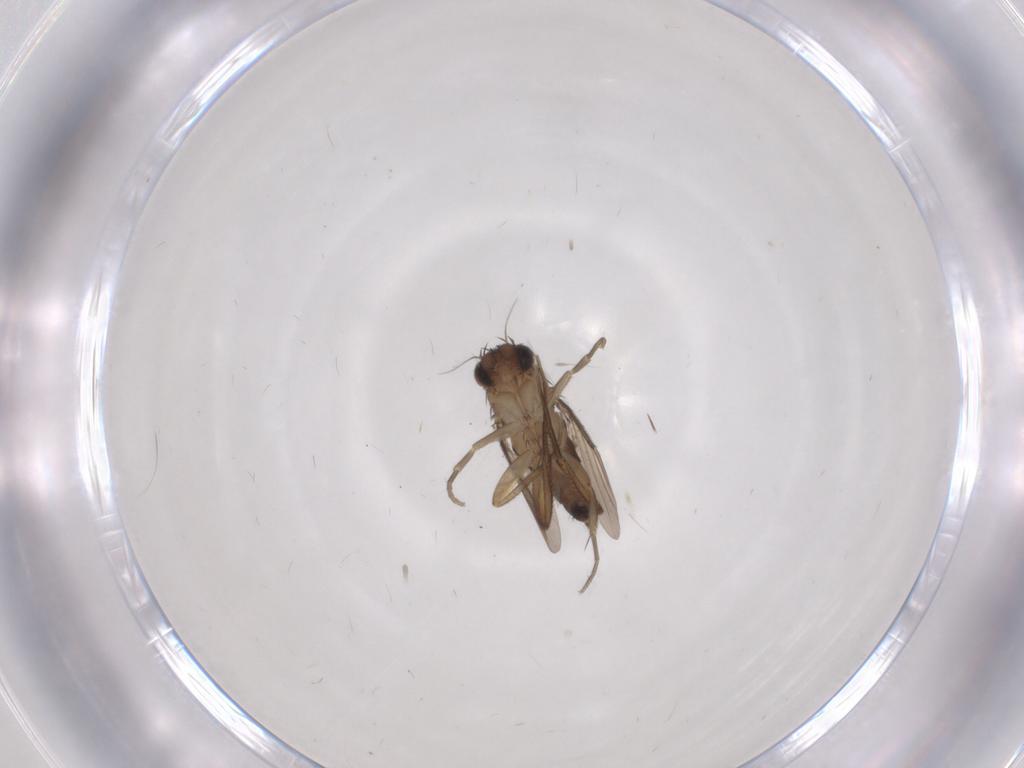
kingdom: Animalia
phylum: Arthropoda
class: Insecta
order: Diptera
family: Phoridae
